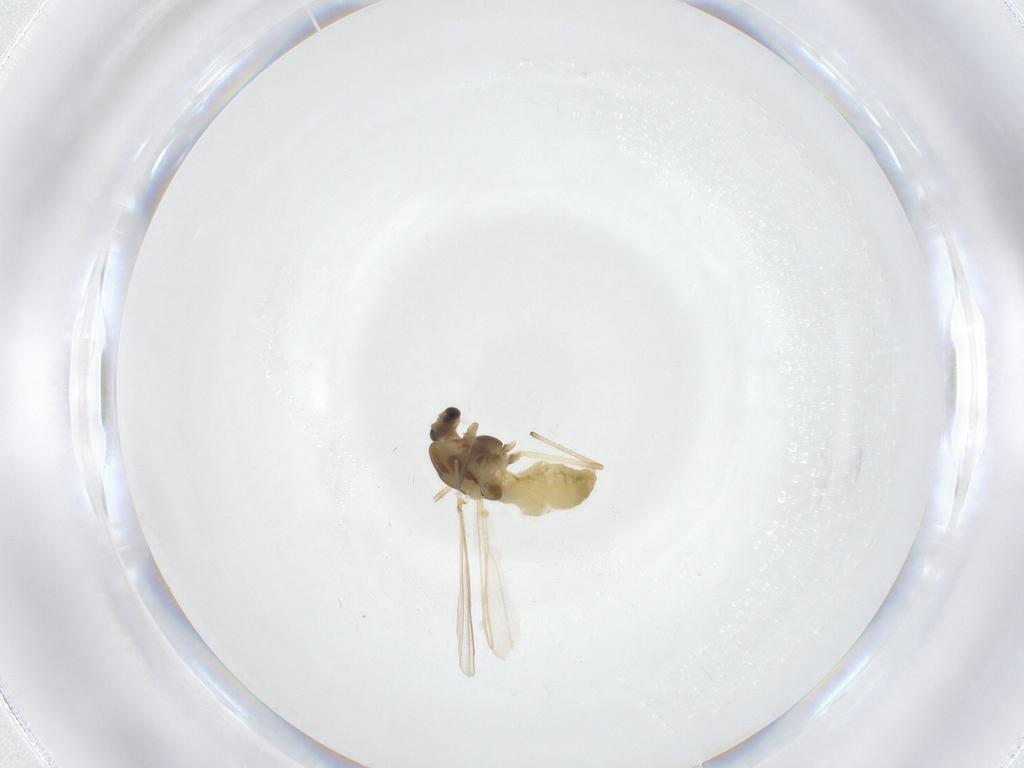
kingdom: Animalia
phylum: Arthropoda
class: Insecta
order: Diptera
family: Chironomidae
